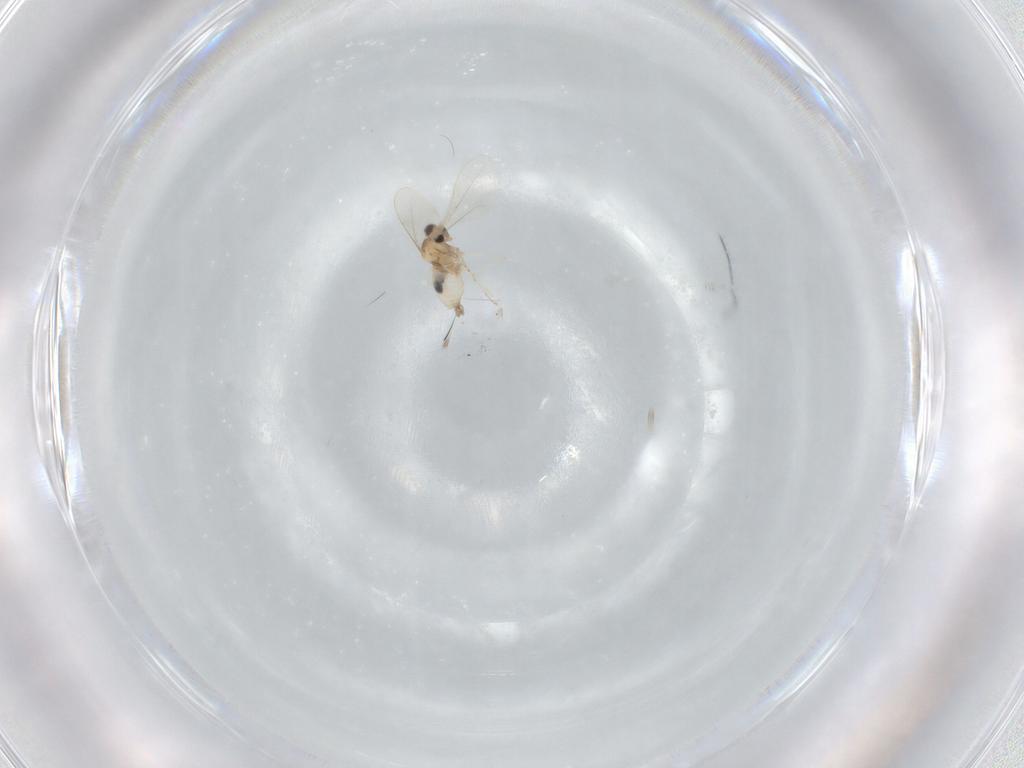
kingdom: Animalia
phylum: Arthropoda
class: Insecta
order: Diptera
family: Cecidomyiidae
